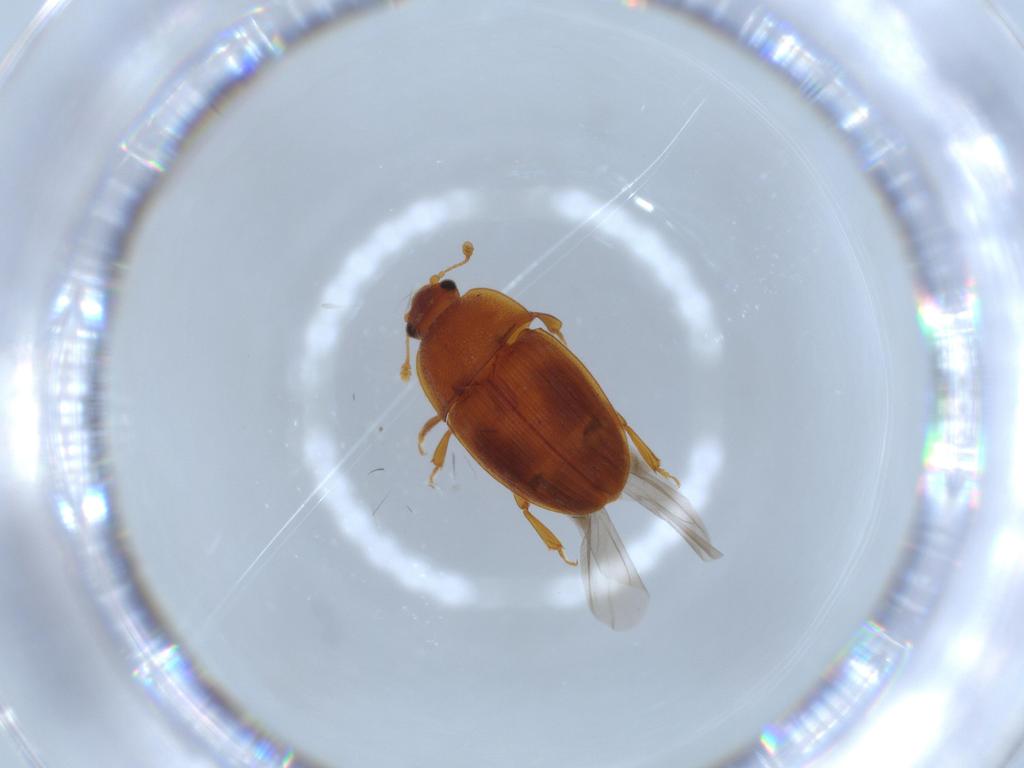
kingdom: Animalia
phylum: Arthropoda
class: Insecta
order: Coleoptera
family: Nitidulidae
